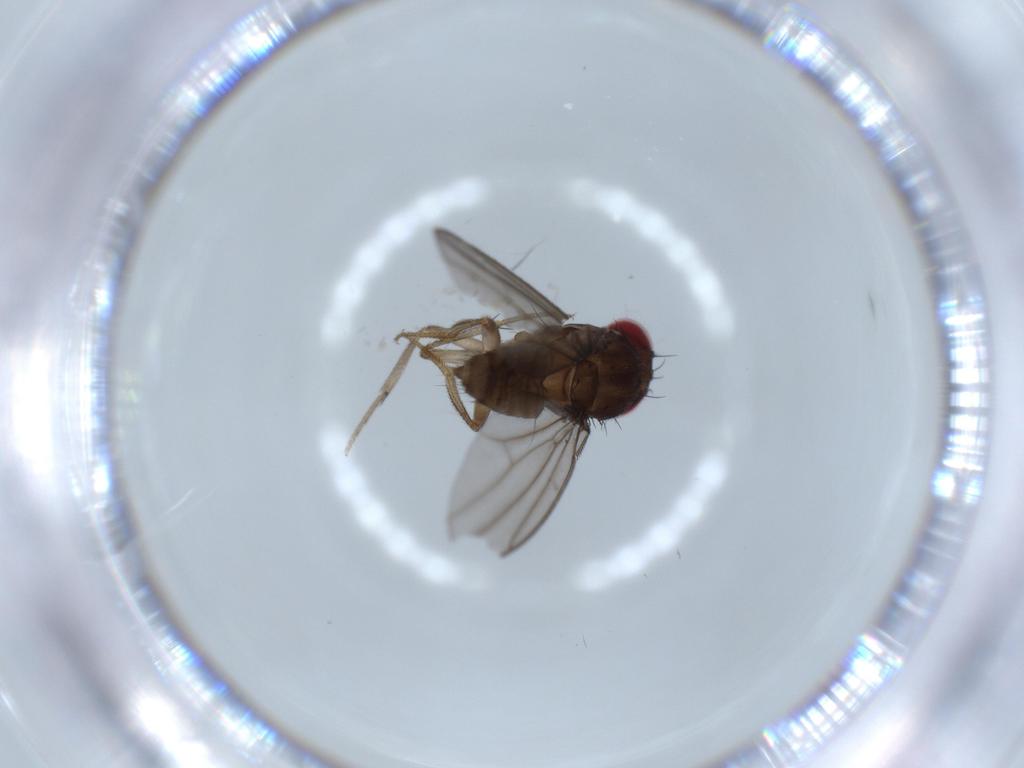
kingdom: Animalia
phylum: Arthropoda
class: Insecta
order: Diptera
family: Drosophilidae
